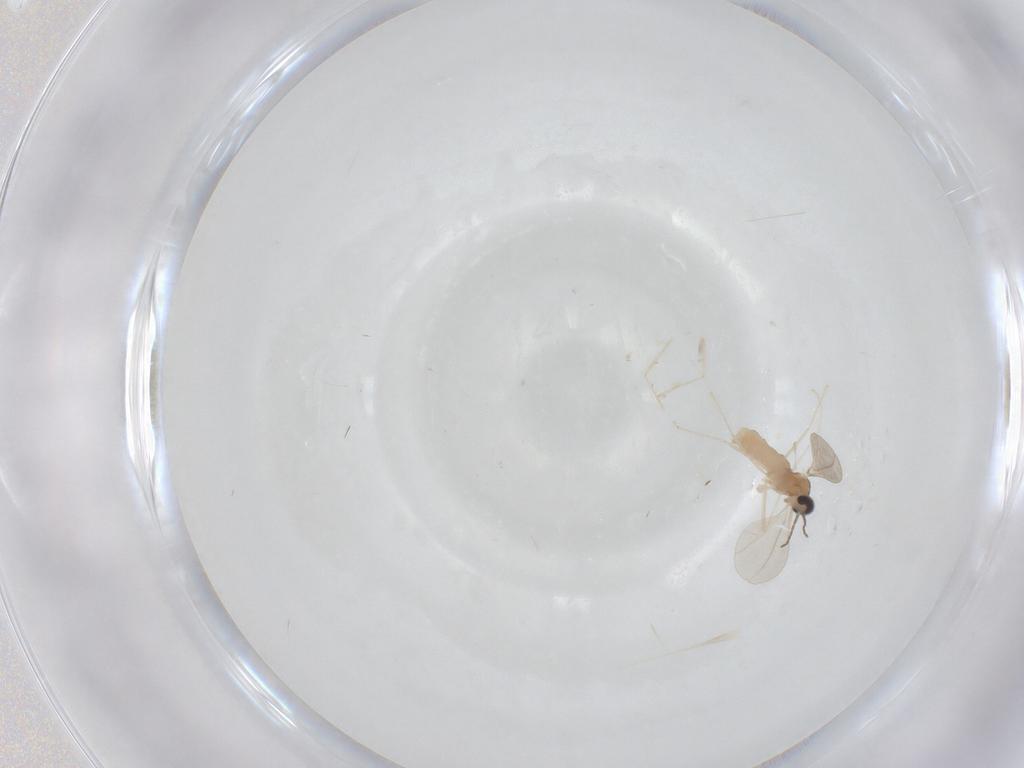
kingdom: Animalia
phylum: Arthropoda
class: Insecta
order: Diptera
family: Cecidomyiidae
